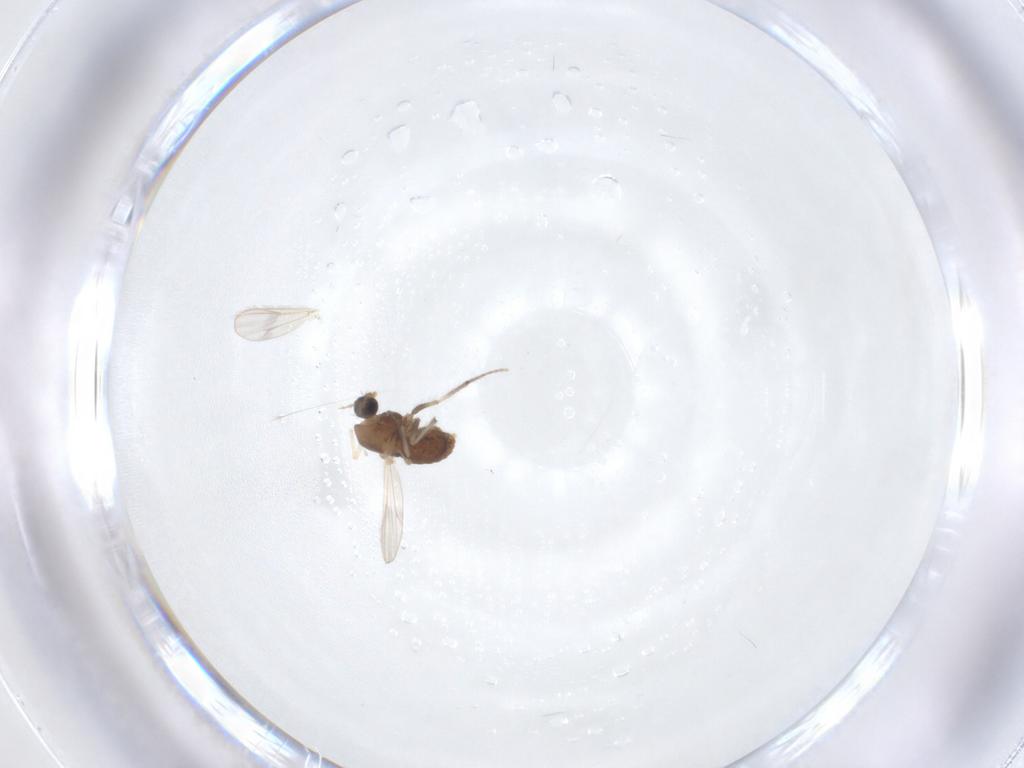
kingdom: Animalia
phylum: Arthropoda
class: Insecta
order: Diptera
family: Chironomidae
